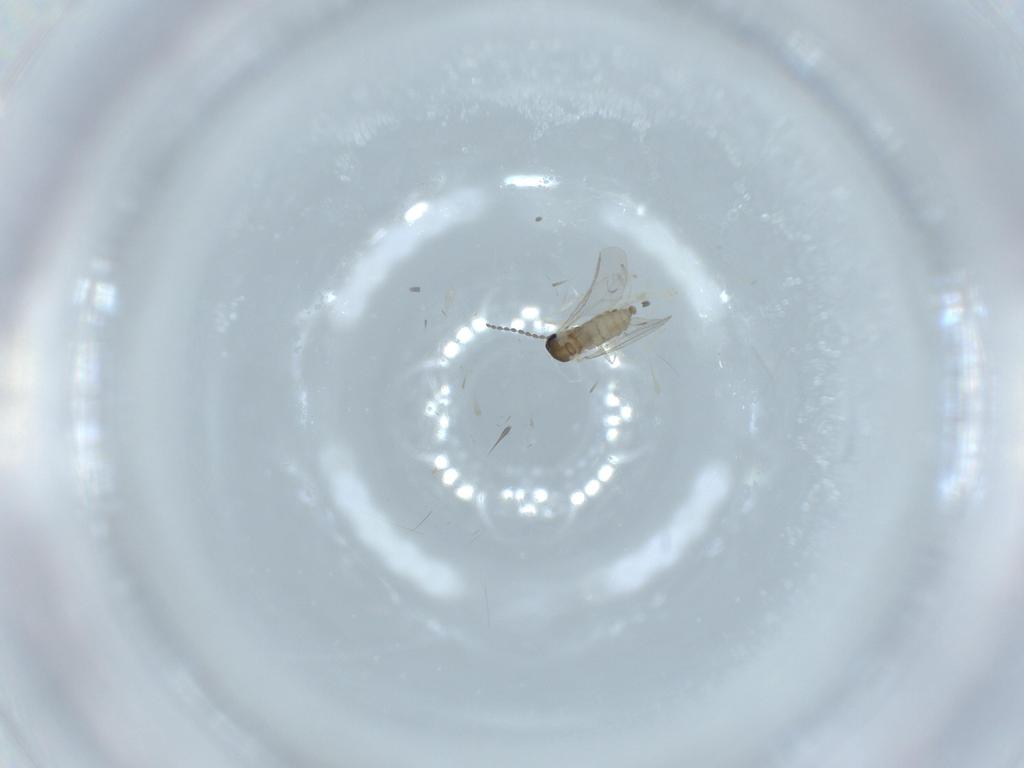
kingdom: Animalia
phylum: Arthropoda
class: Insecta
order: Diptera
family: Cecidomyiidae
